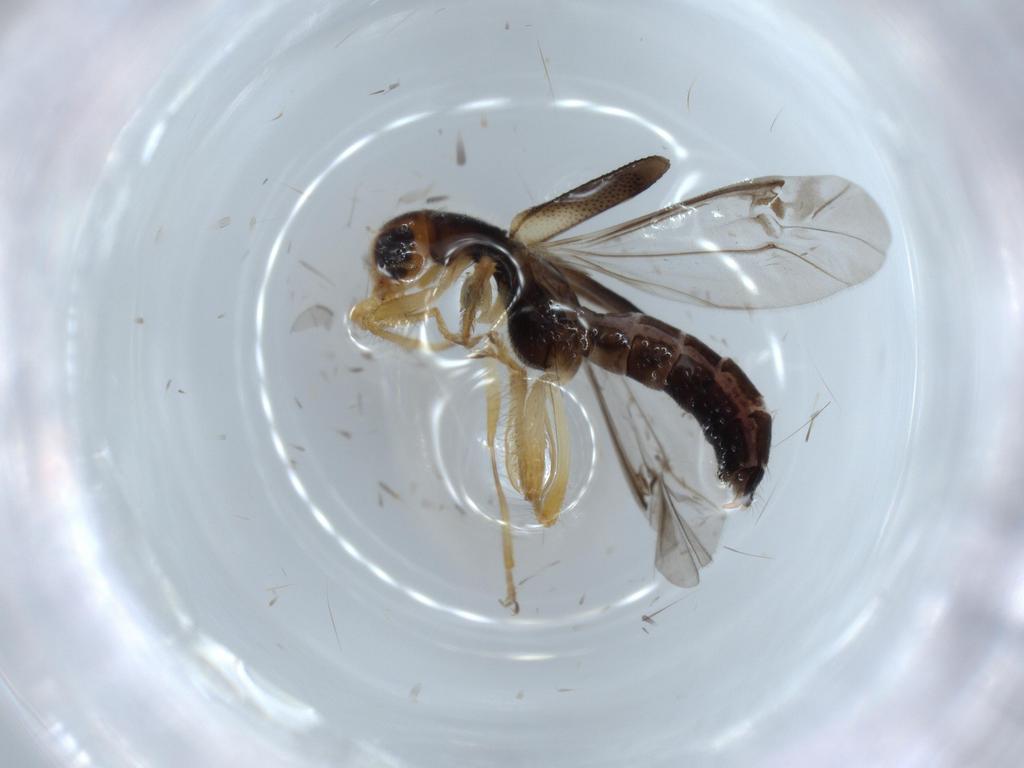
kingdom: Animalia
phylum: Arthropoda
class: Insecta
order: Coleoptera
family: Cleridae
